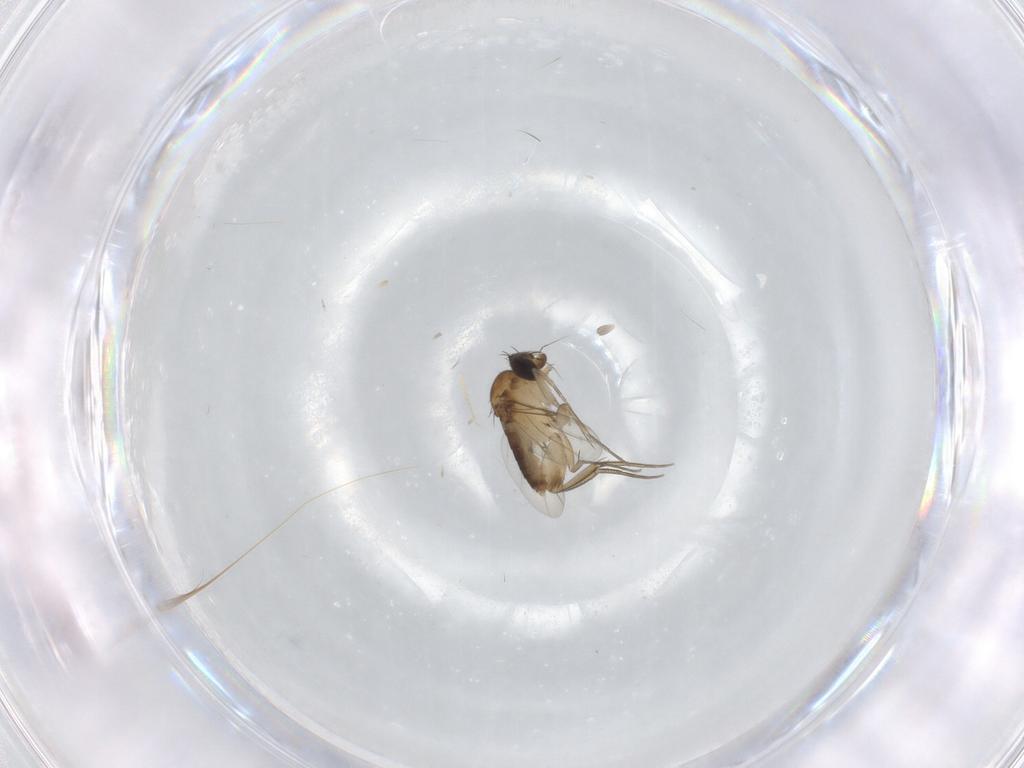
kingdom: Animalia
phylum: Arthropoda
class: Insecta
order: Diptera
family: Phoridae
